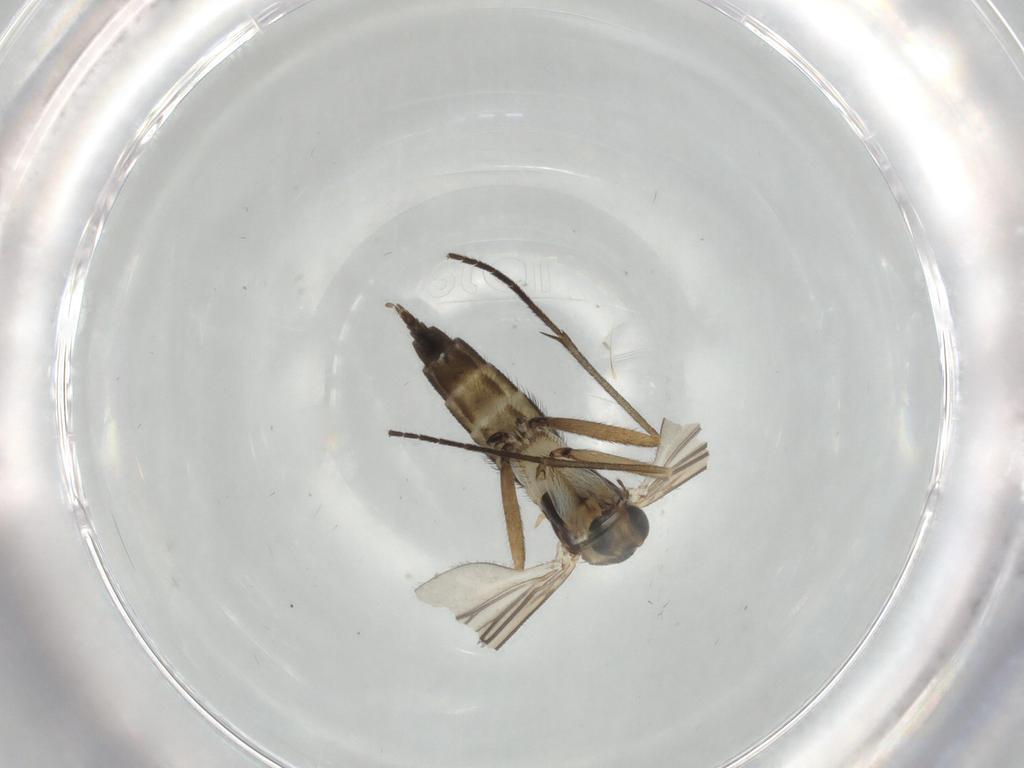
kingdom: Animalia
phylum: Arthropoda
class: Insecta
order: Diptera
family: Sciaridae
